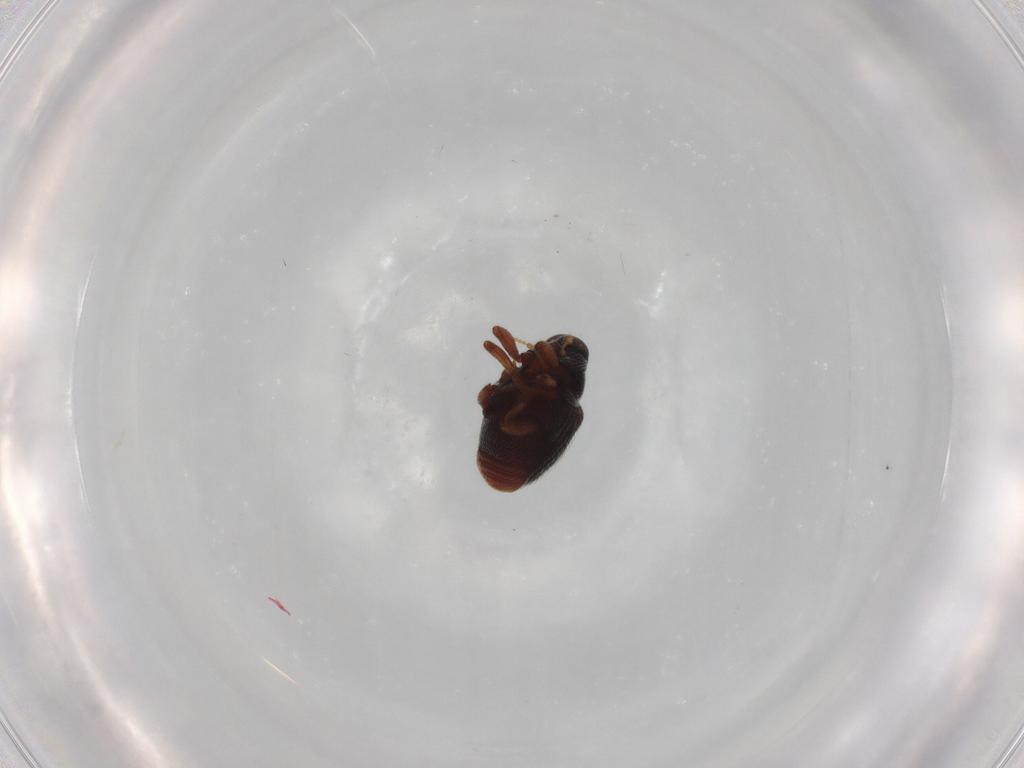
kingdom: Animalia
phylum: Arthropoda
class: Insecta
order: Coleoptera
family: Curculionidae
